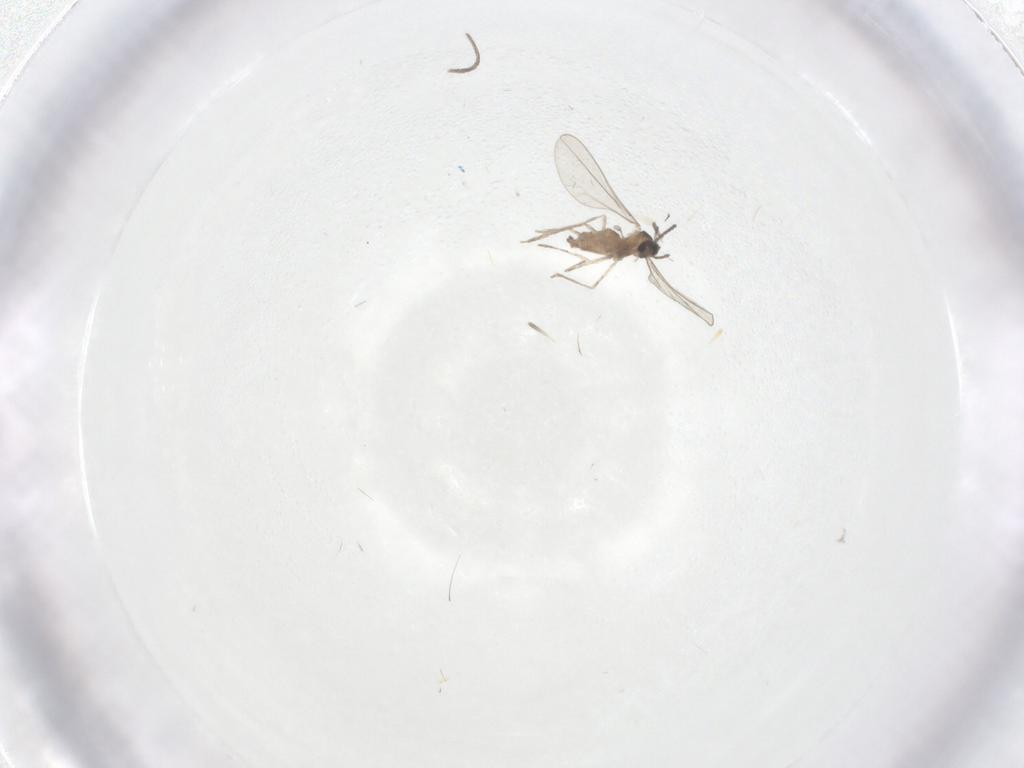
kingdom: Animalia
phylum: Arthropoda
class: Insecta
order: Diptera
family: Cecidomyiidae
